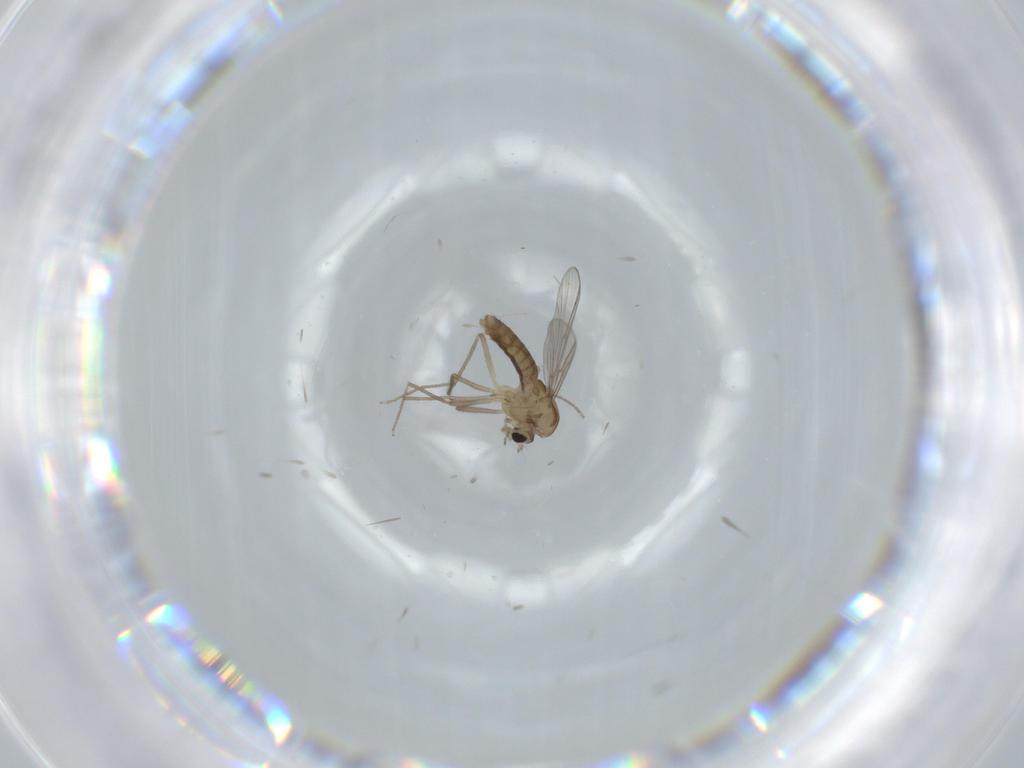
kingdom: Animalia
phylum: Arthropoda
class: Insecta
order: Diptera
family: Chironomidae
